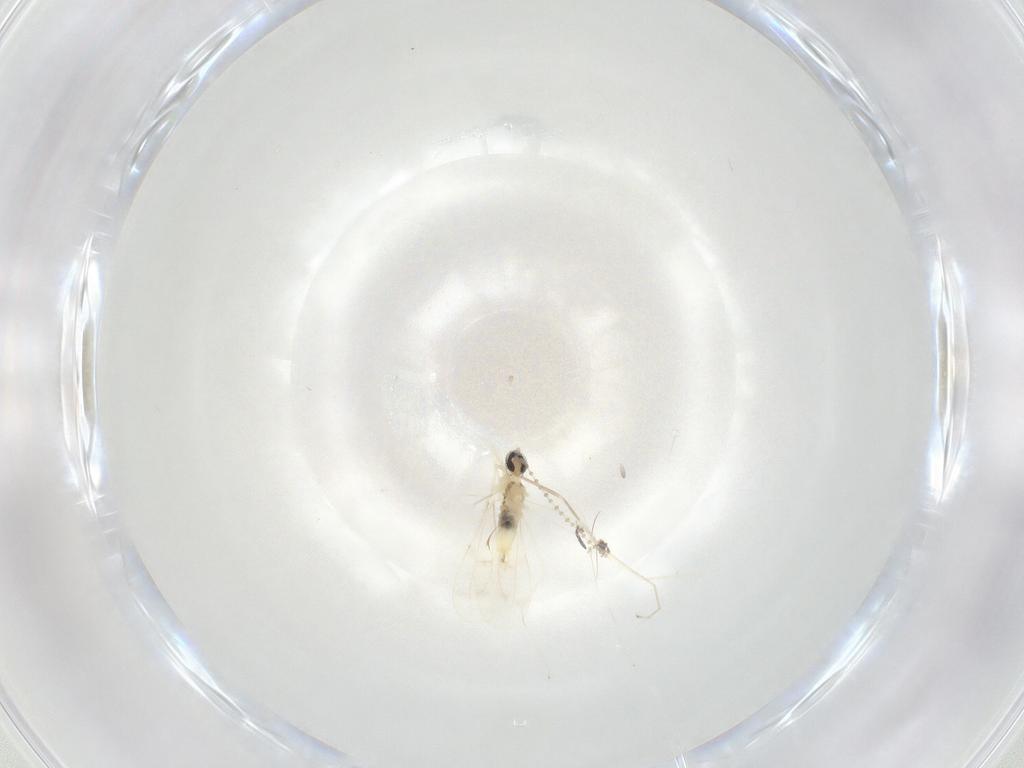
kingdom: Animalia
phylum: Arthropoda
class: Insecta
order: Diptera
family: Cecidomyiidae
